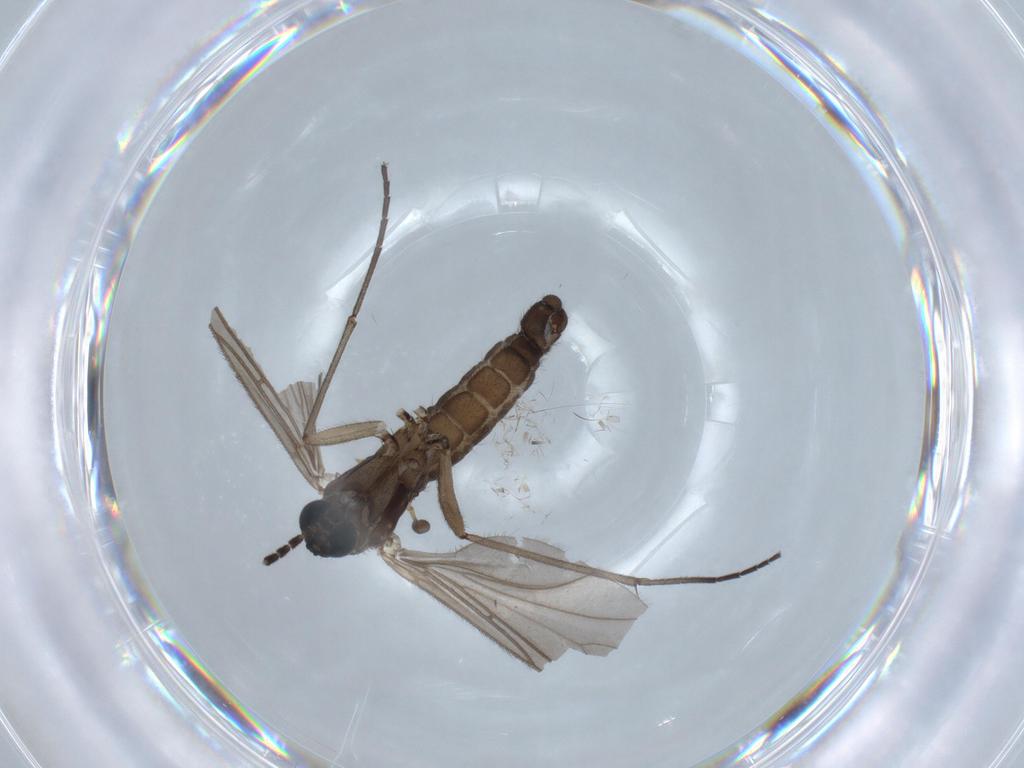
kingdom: Animalia
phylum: Arthropoda
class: Insecta
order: Diptera
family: Sciaridae
